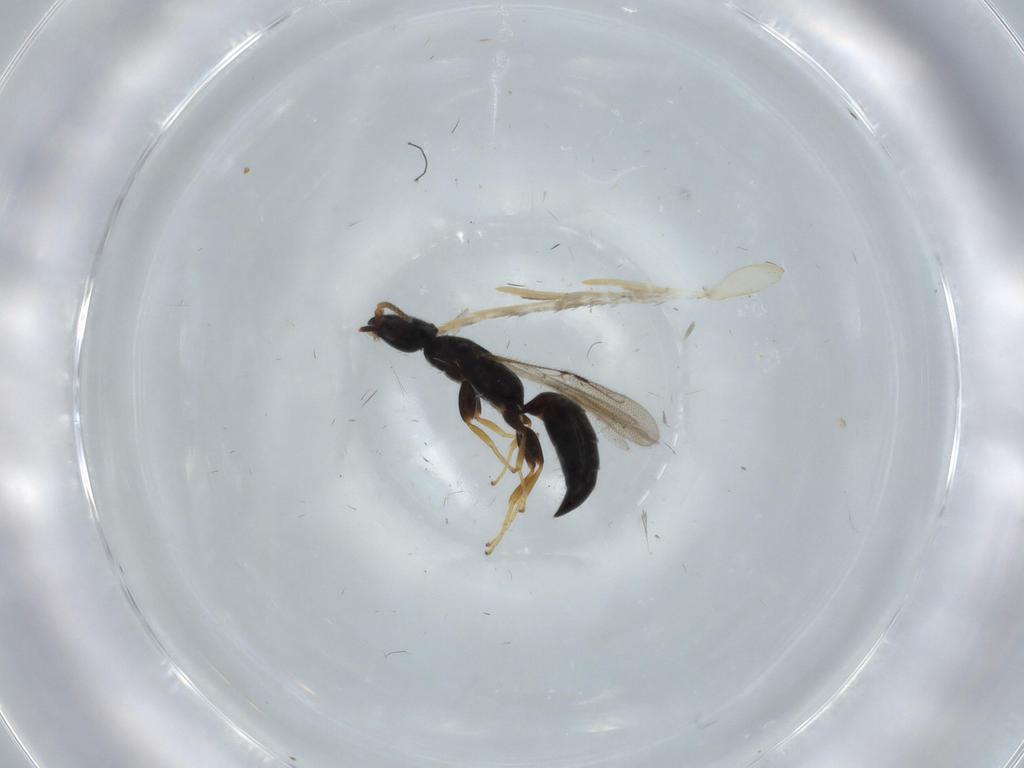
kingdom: Animalia
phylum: Arthropoda
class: Insecta
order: Hymenoptera
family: Bethylidae
